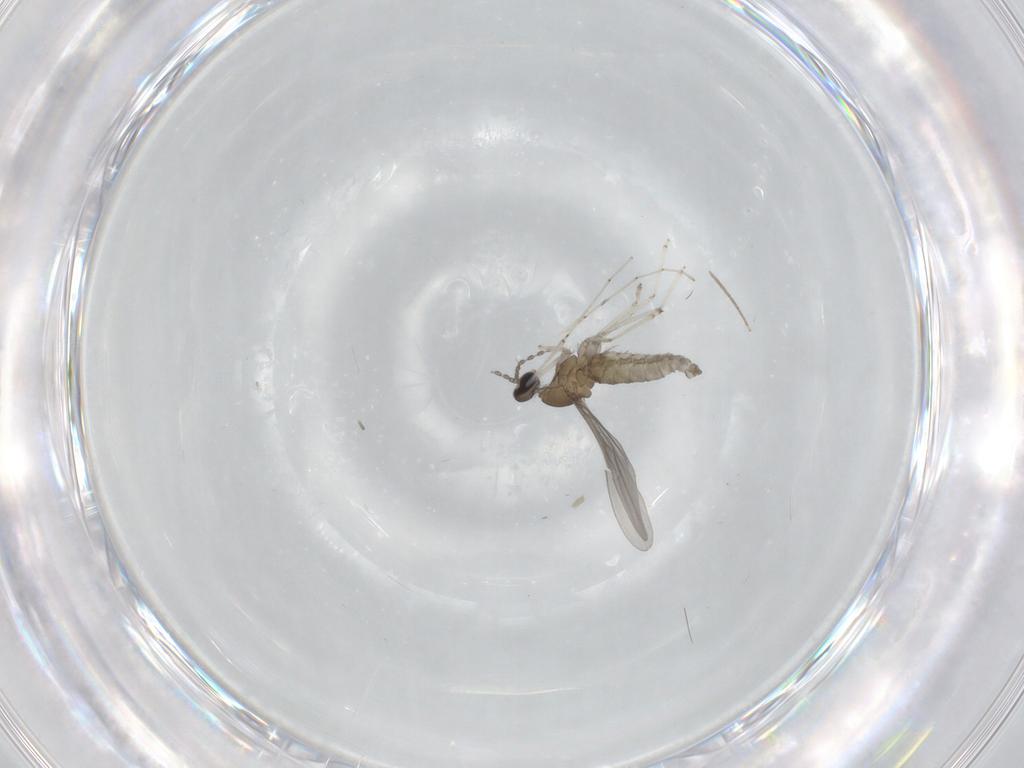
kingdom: Animalia
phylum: Arthropoda
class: Insecta
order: Diptera
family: Cecidomyiidae
